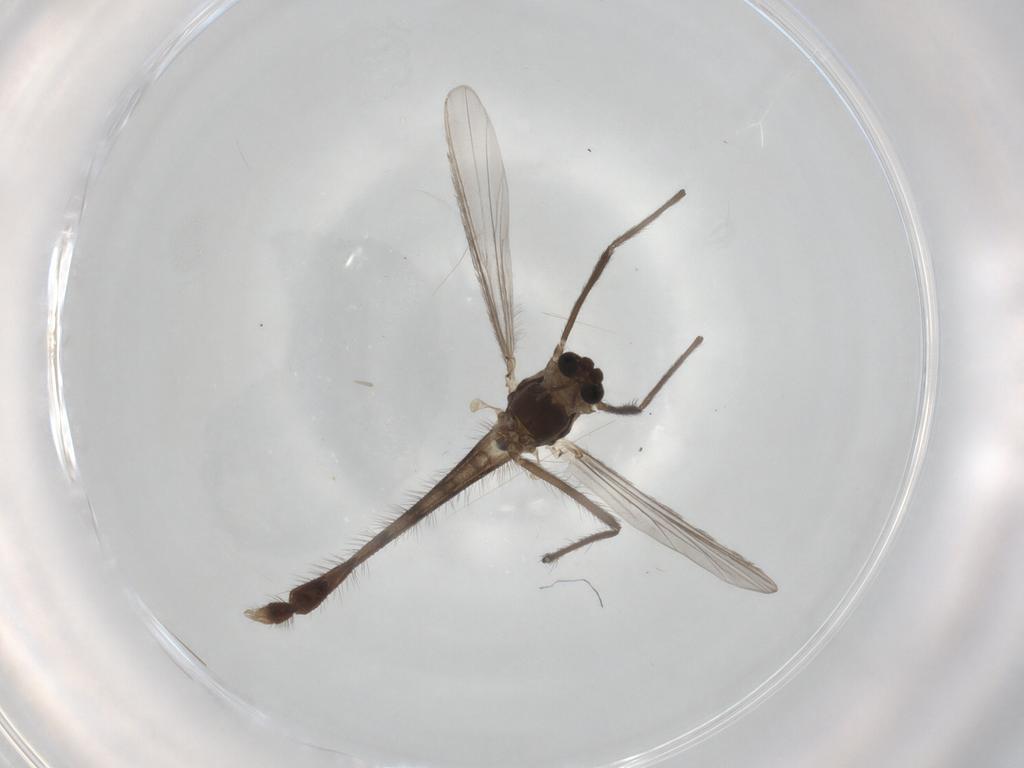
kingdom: Animalia
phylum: Arthropoda
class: Insecta
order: Diptera
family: Chironomidae
